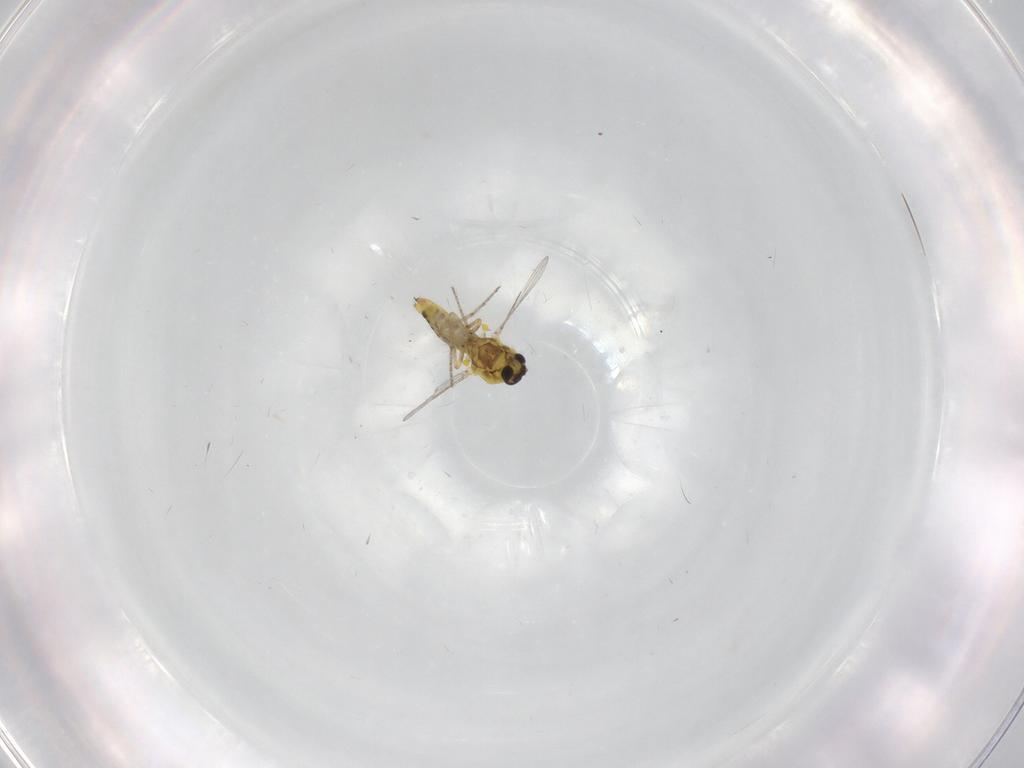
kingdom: Animalia
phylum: Arthropoda
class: Insecta
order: Diptera
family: Ceratopogonidae
